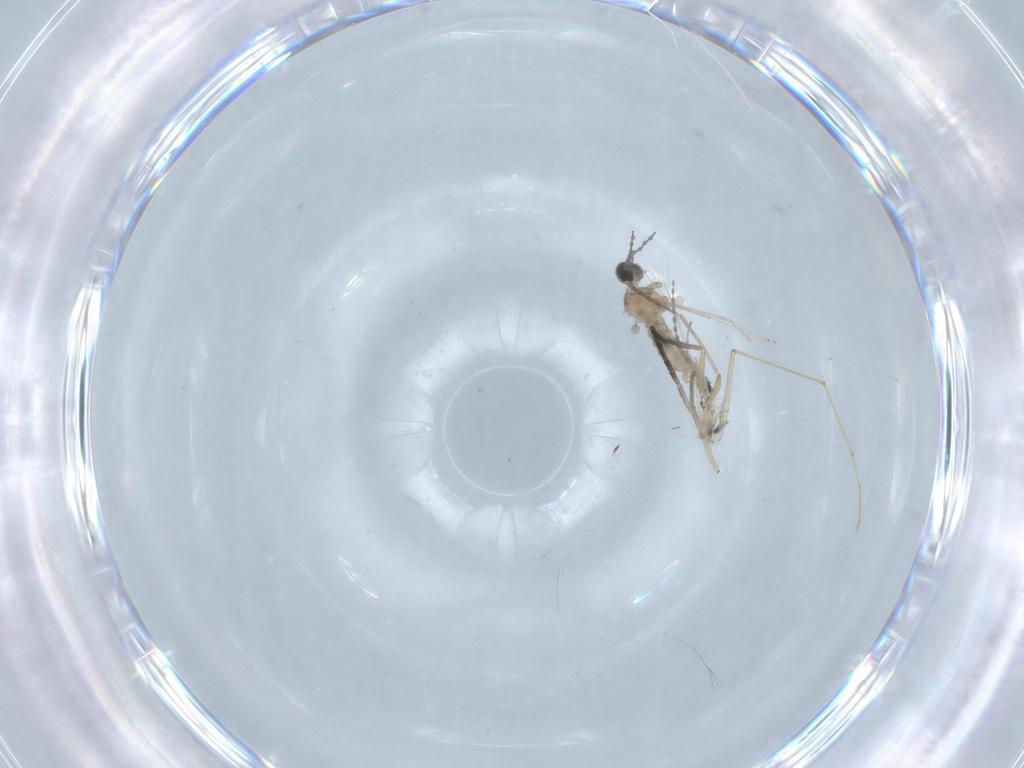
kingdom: Animalia
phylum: Arthropoda
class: Insecta
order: Diptera
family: Cecidomyiidae
